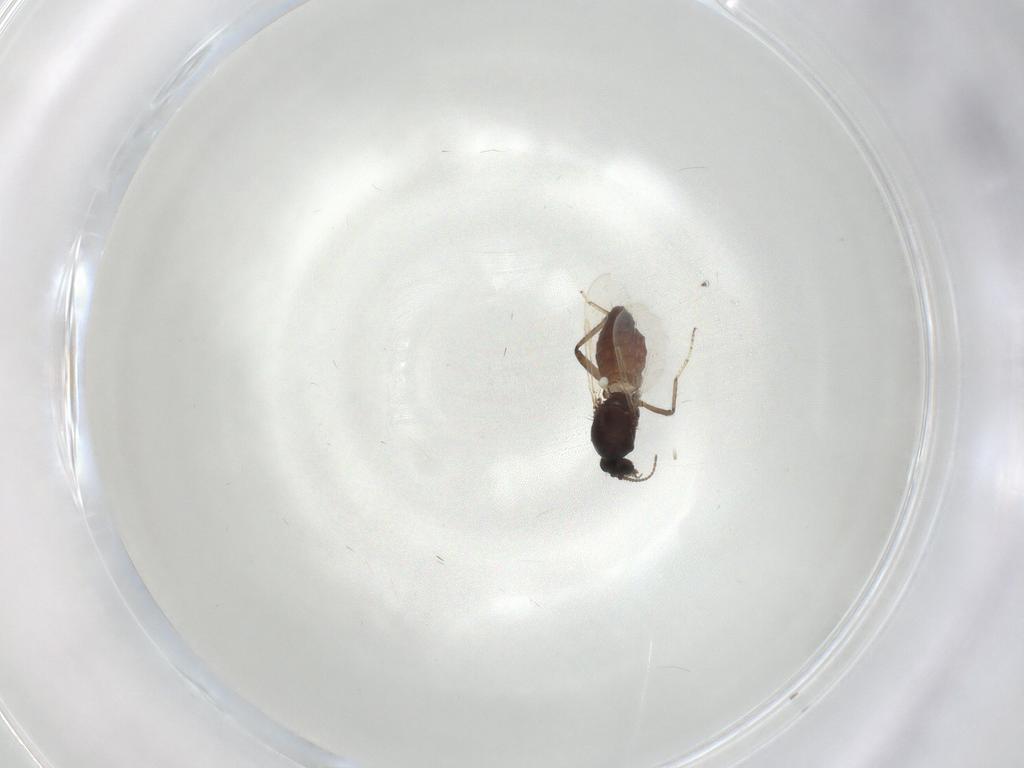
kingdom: Animalia
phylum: Arthropoda
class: Insecta
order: Diptera
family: Ceratopogonidae
